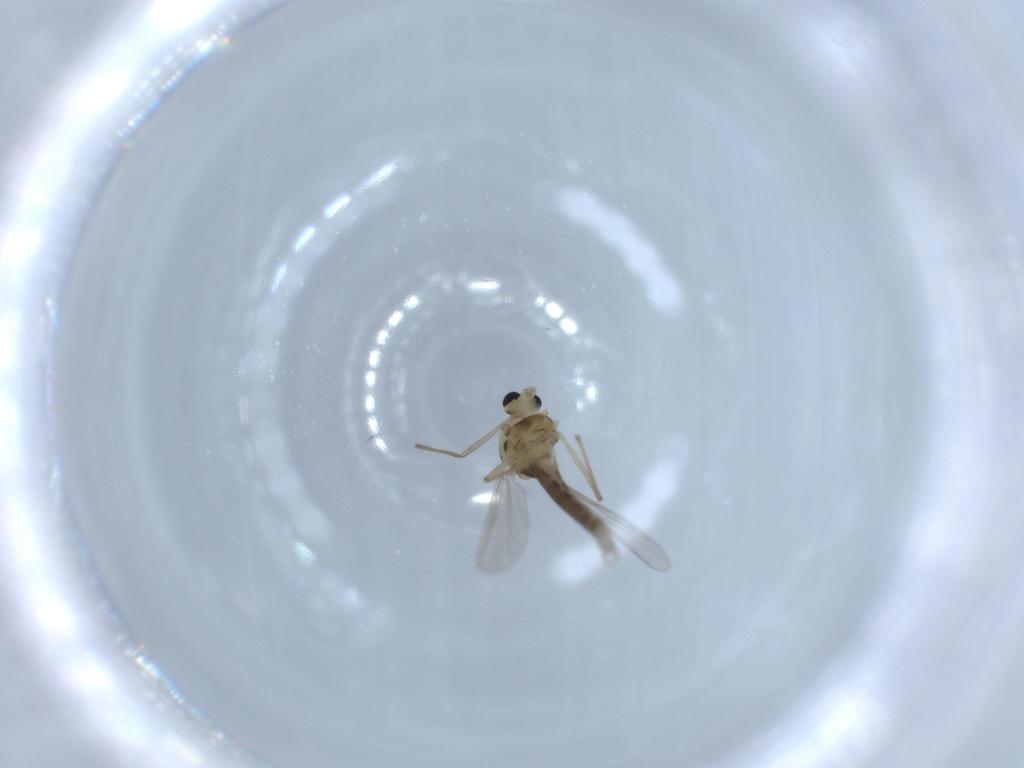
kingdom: Animalia
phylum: Arthropoda
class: Insecta
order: Diptera
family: Chironomidae
